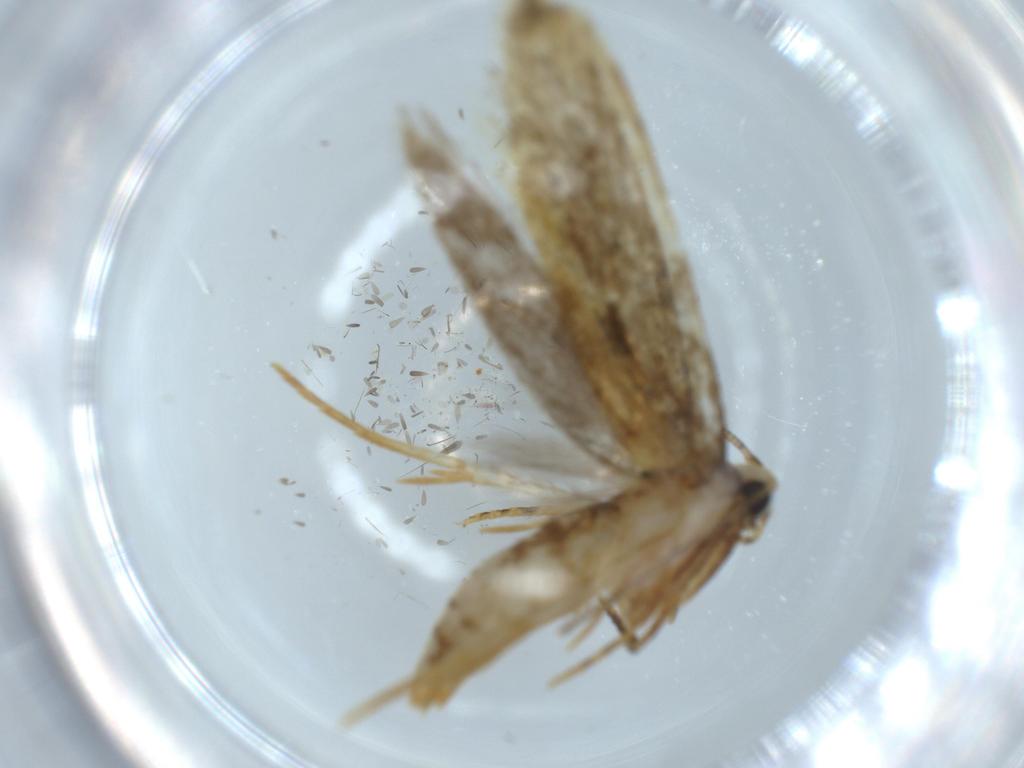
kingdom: Animalia
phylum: Arthropoda
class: Insecta
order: Lepidoptera
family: Tineidae
